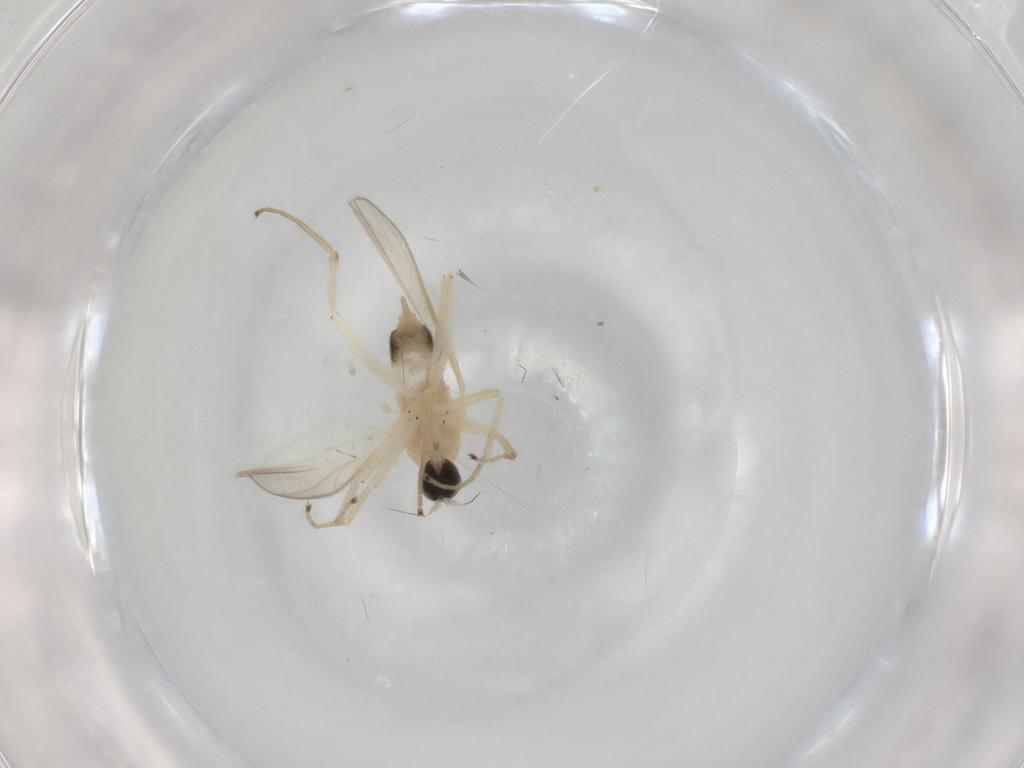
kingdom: Animalia
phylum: Arthropoda
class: Insecta
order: Diptera
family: Hybotidae
